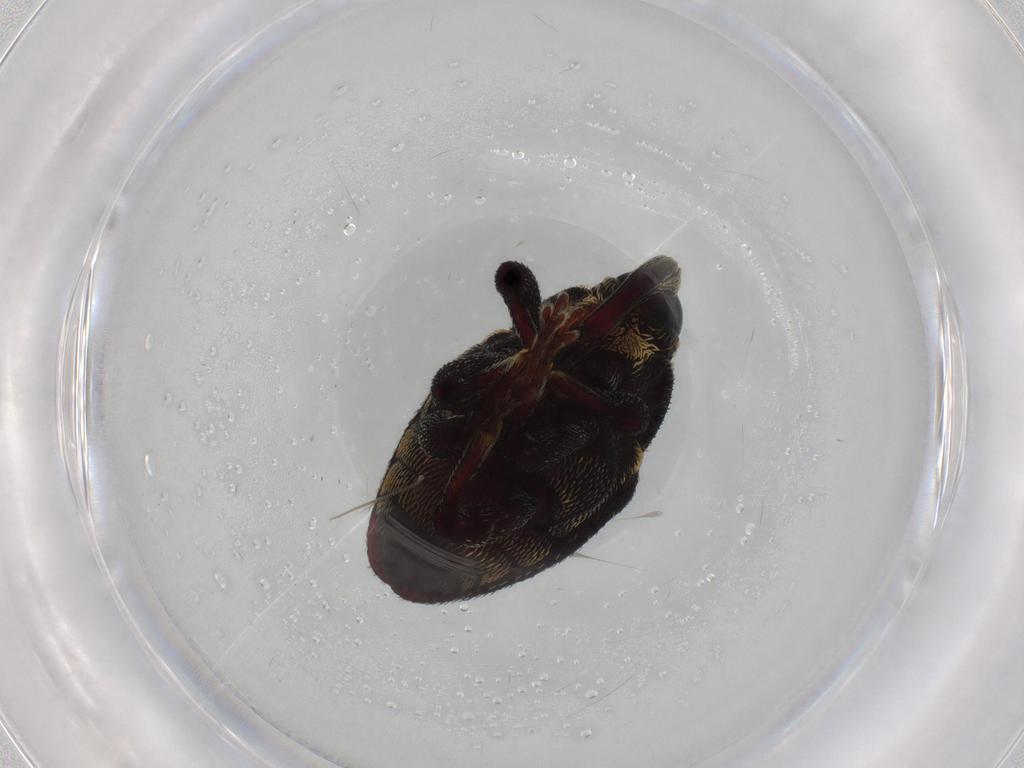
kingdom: Animalia
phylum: Arthropoda
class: Insecta
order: Coleoptera
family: Curculionidae
